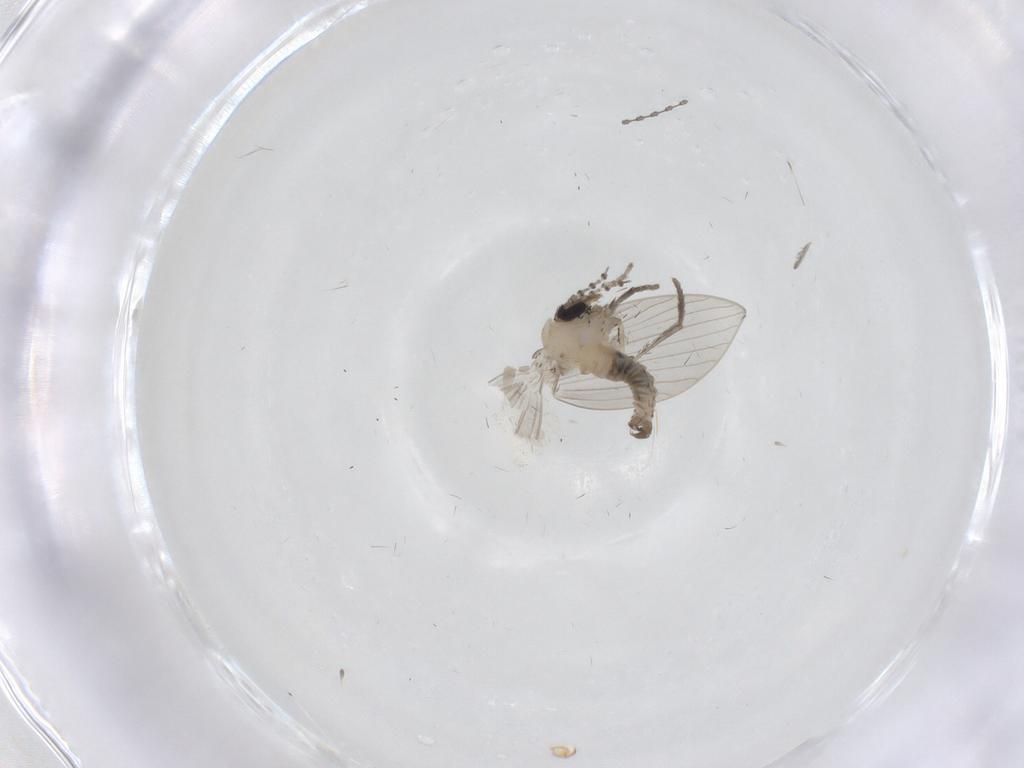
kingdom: Animalia
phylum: Arthropoda
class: Insecta
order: Diptera
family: Psychodidae
